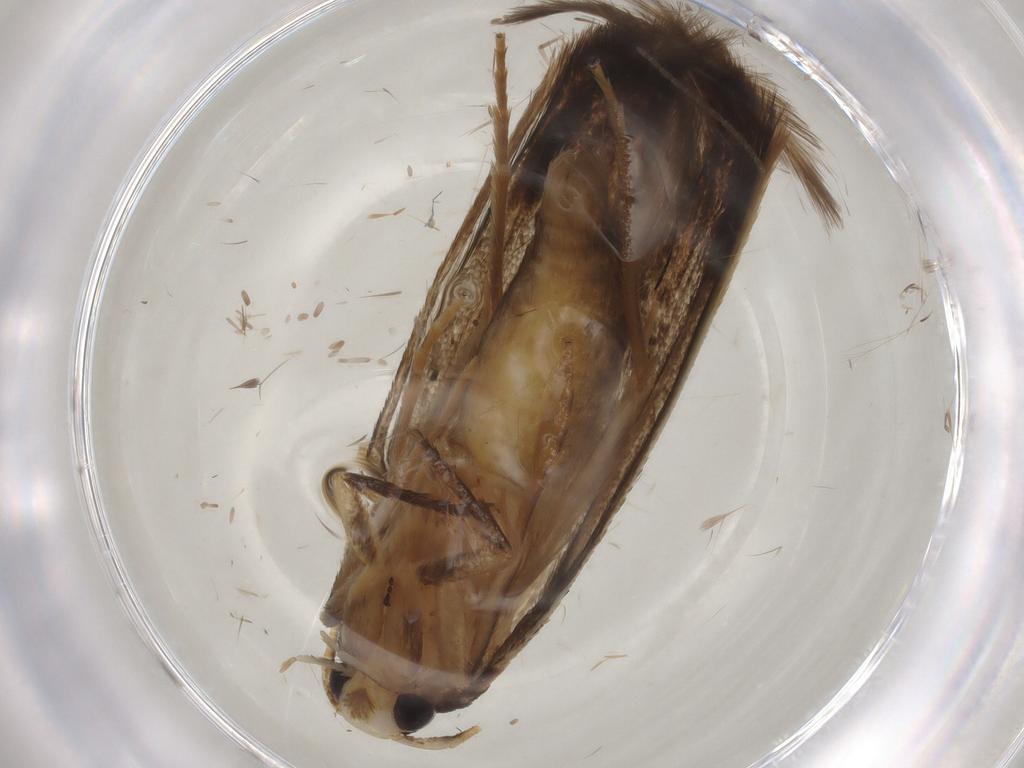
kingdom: Animalia
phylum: Arthropoda
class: Insecta
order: Lepidoptera
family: Tineidae
